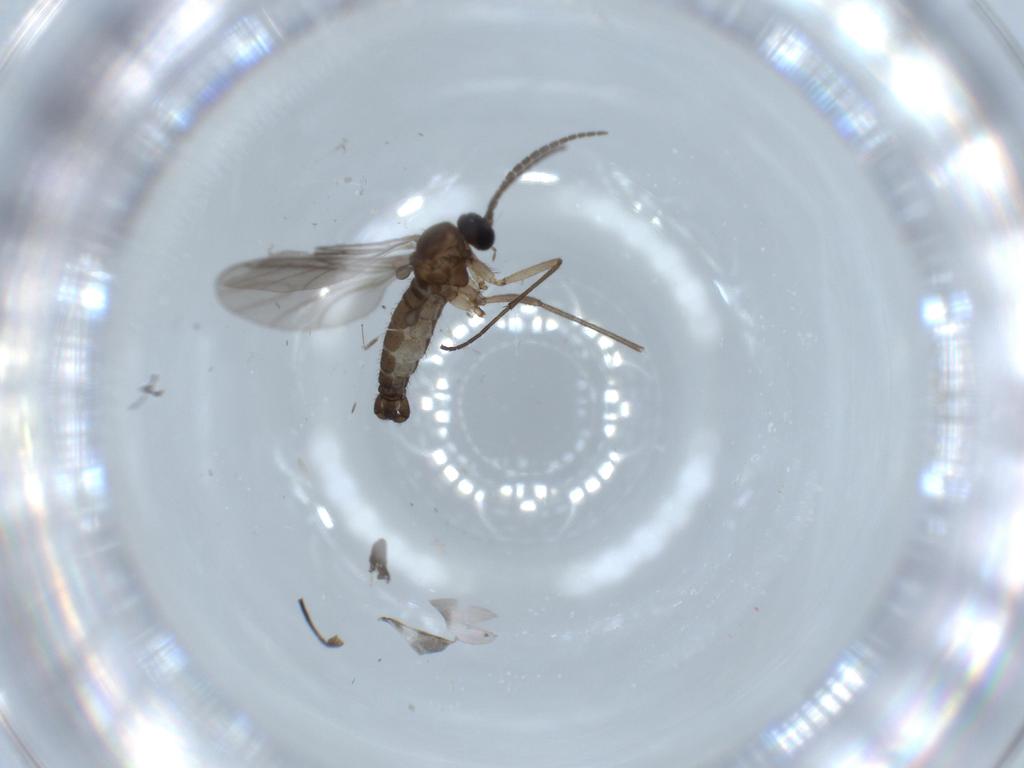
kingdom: Animalia
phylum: Arthropoda
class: Insecta
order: Diptera
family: Sciaridae
